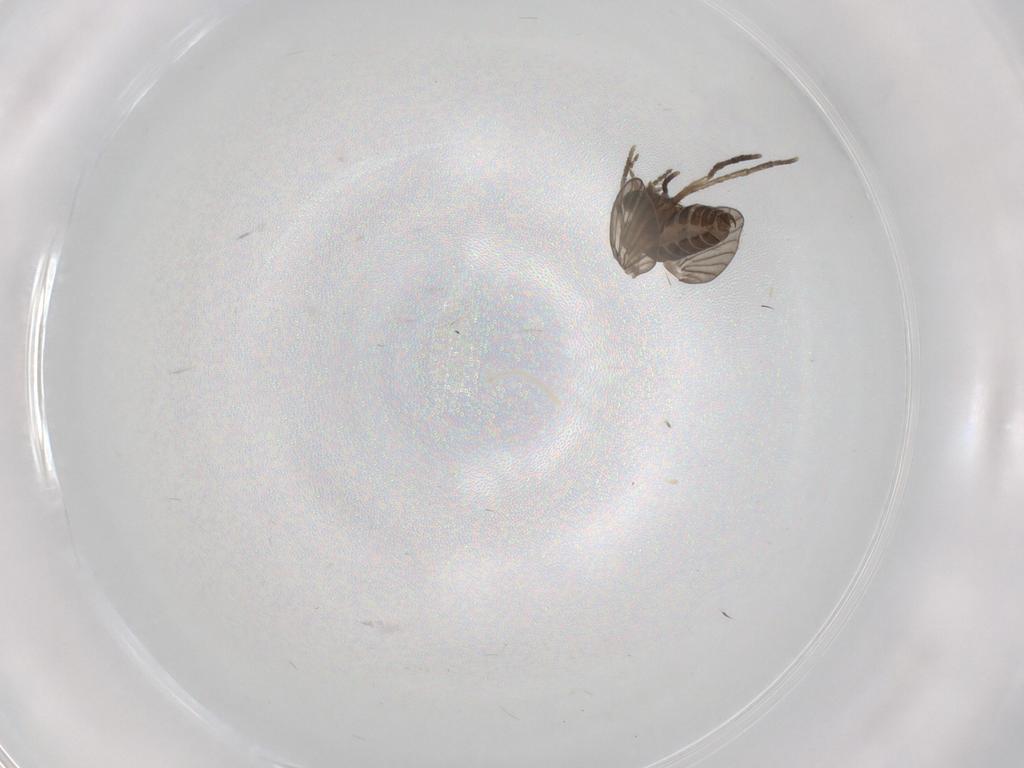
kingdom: Animalia
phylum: Arthropoda
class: Insecta
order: Diptera
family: Psychodidae
